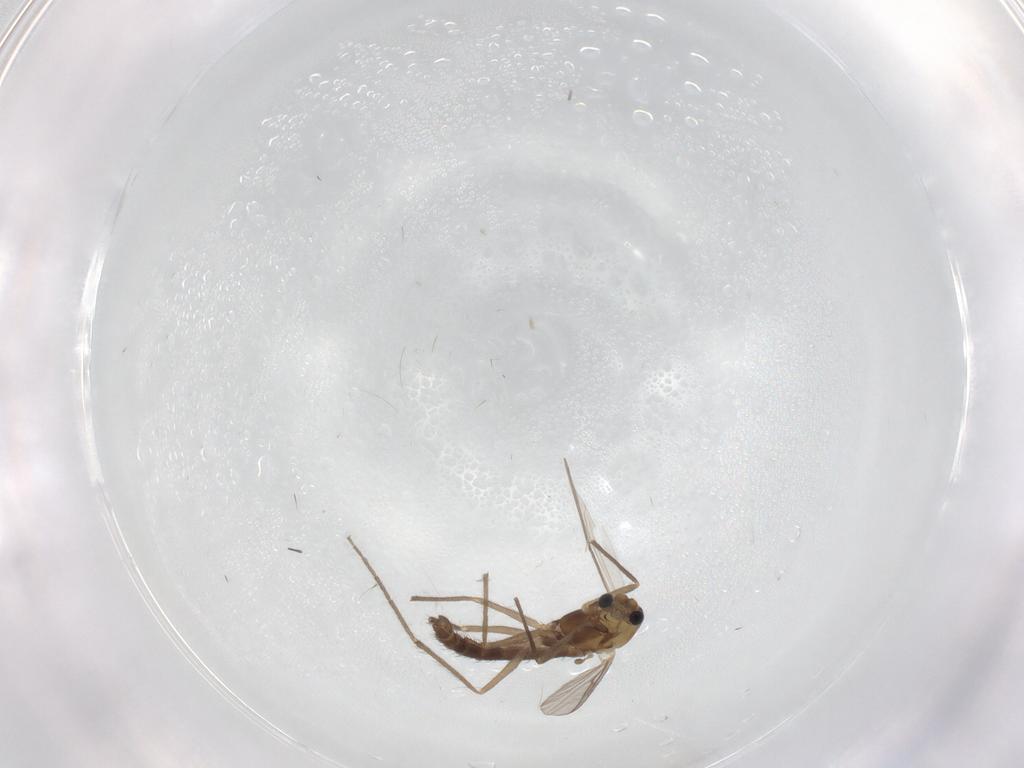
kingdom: Animalia
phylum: Arthropoda
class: Insecta
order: Diptera
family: Chironomidae
